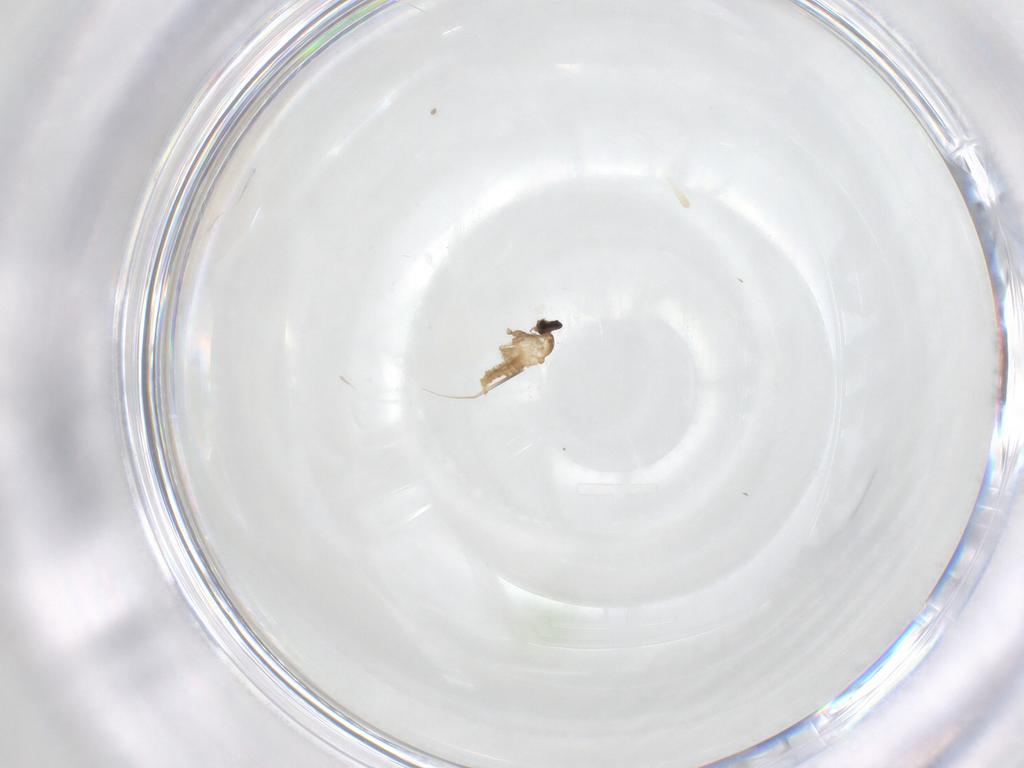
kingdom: Animalia
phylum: Arthropoda
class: Insecta
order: Diptera
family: Cecidomyiidae
